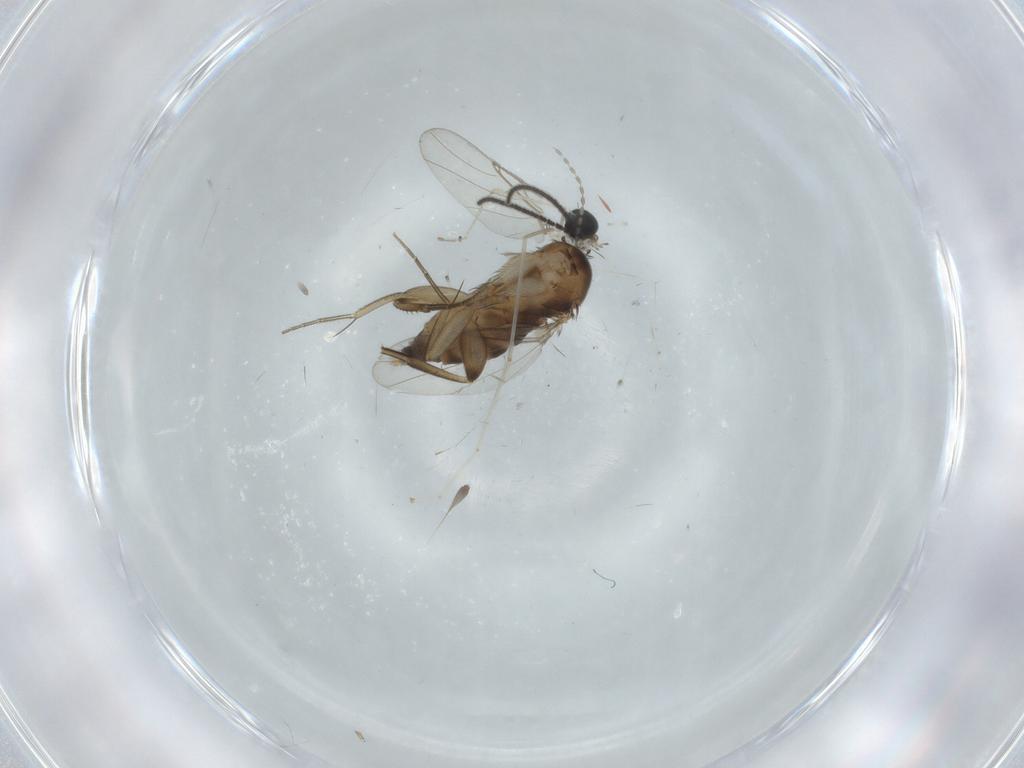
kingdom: Animalia
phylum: Arthropoda
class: Insecta
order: Diptera
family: Phoridae
